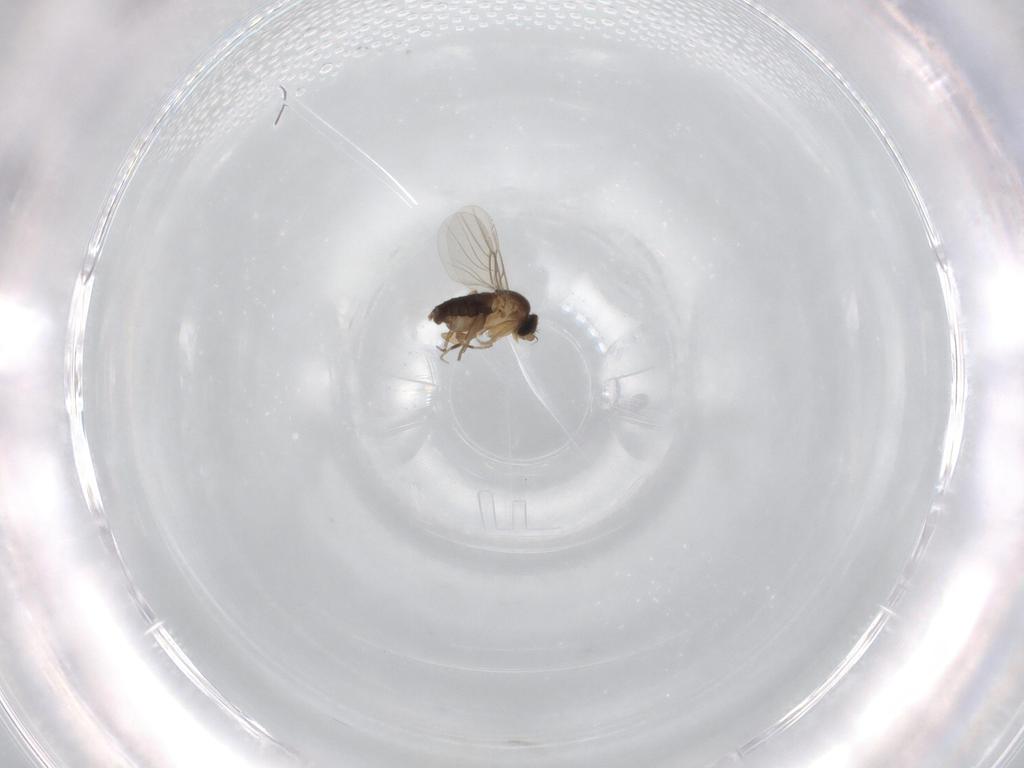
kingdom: Animalia
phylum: Arthropoda
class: Insecta
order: Diptera
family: Phoridae
